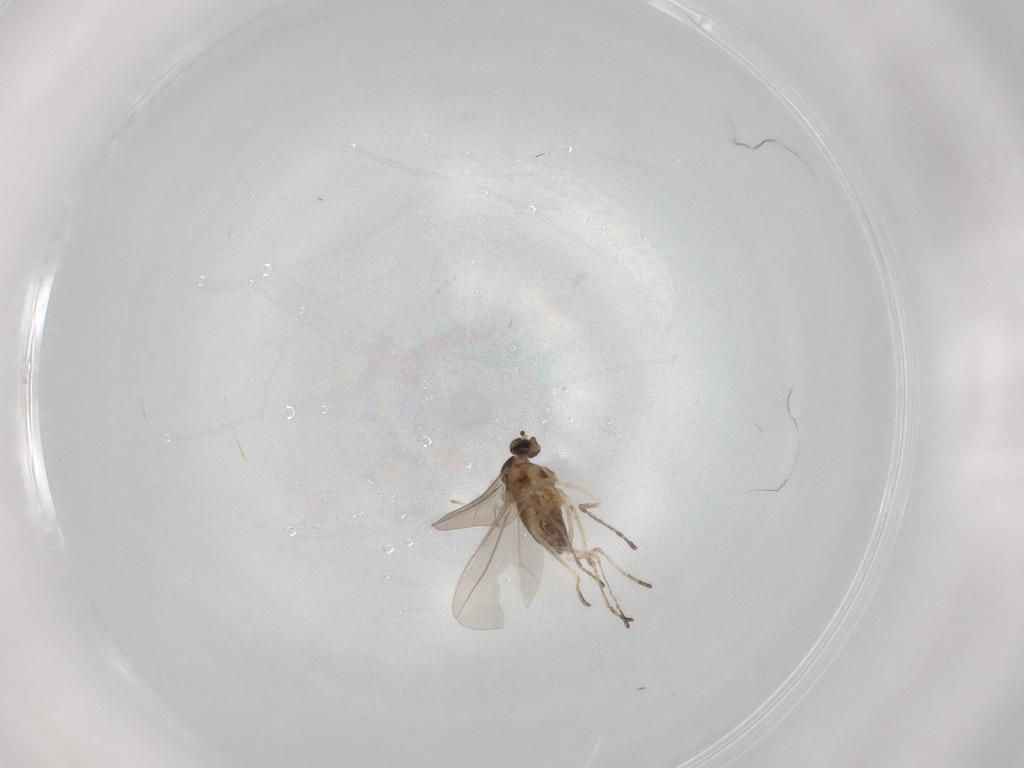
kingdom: Animalia
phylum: Arthropoda
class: Insecta
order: Diptera
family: Cecidomyiidae
